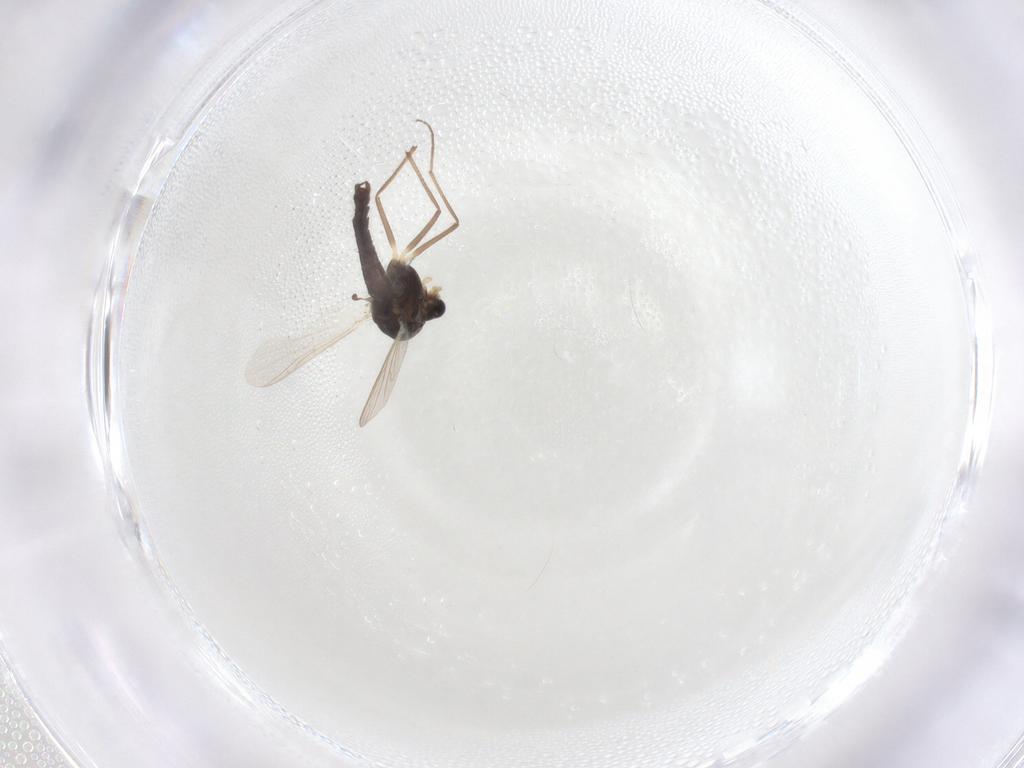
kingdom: Animalia
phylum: Arthropoda
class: Insecta
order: Diptera
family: Chironomidae
